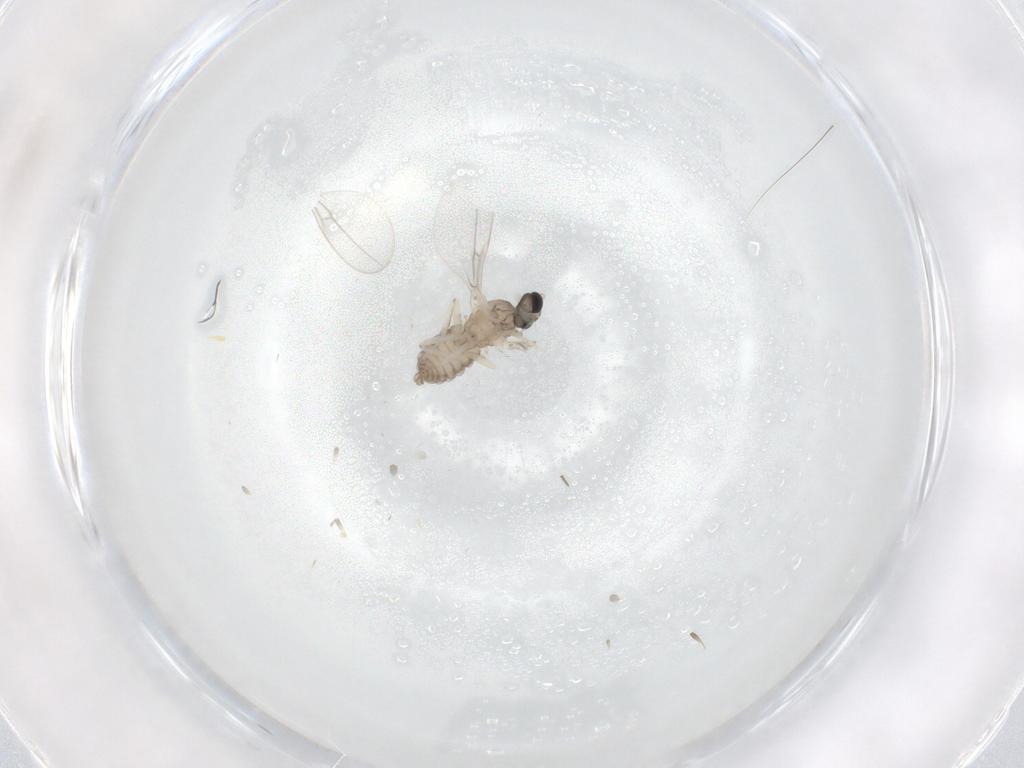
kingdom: Animalia
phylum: Arthropoda
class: Insecta
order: Diptera
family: Cecidomyiidae
